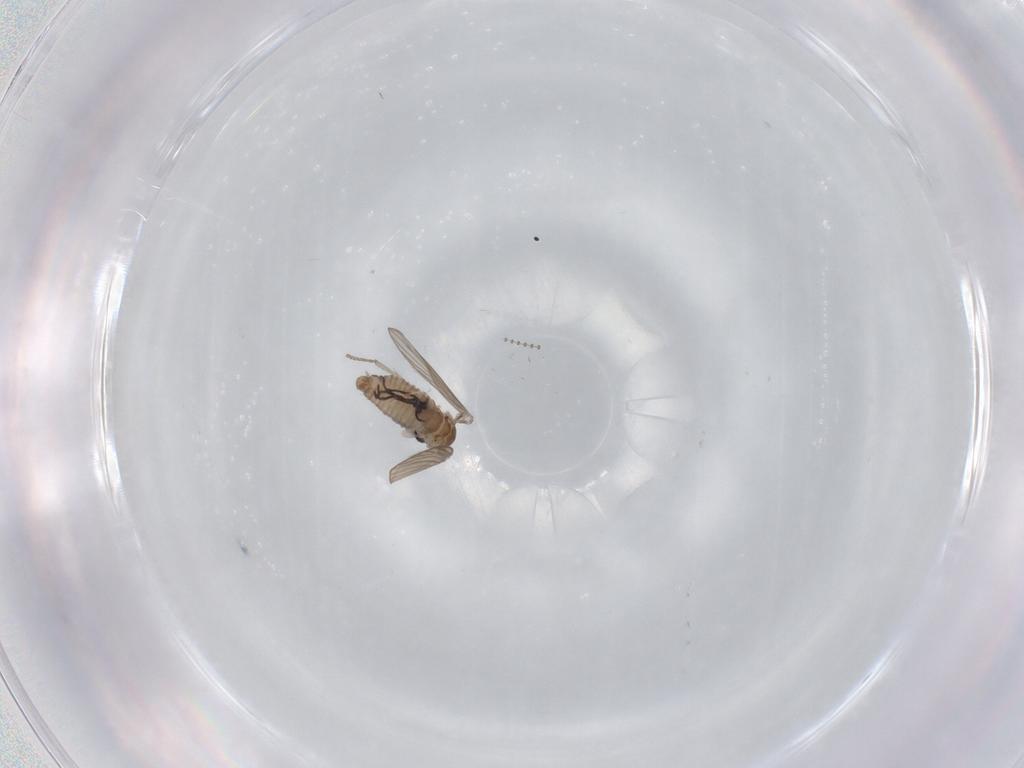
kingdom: Animalia
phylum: Arthropoda
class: Insecta
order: Diptera
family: Psychodidae
